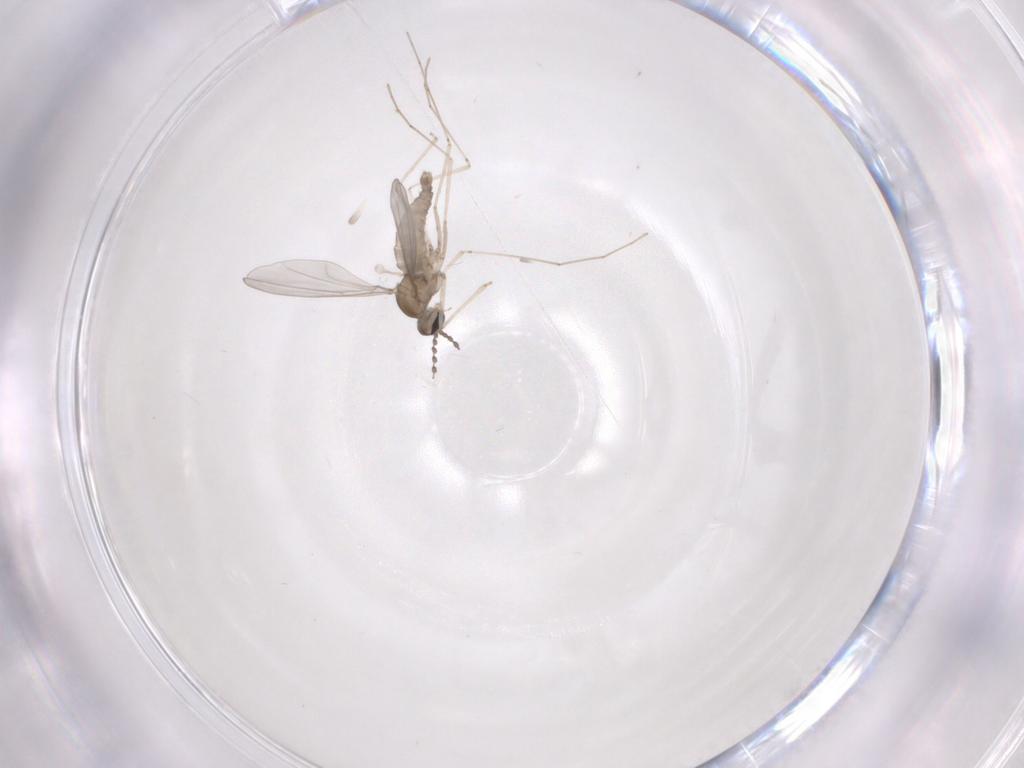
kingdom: Animalia
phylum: Arthropoda
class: Insecta
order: Diptera
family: Cecidomyiidae
